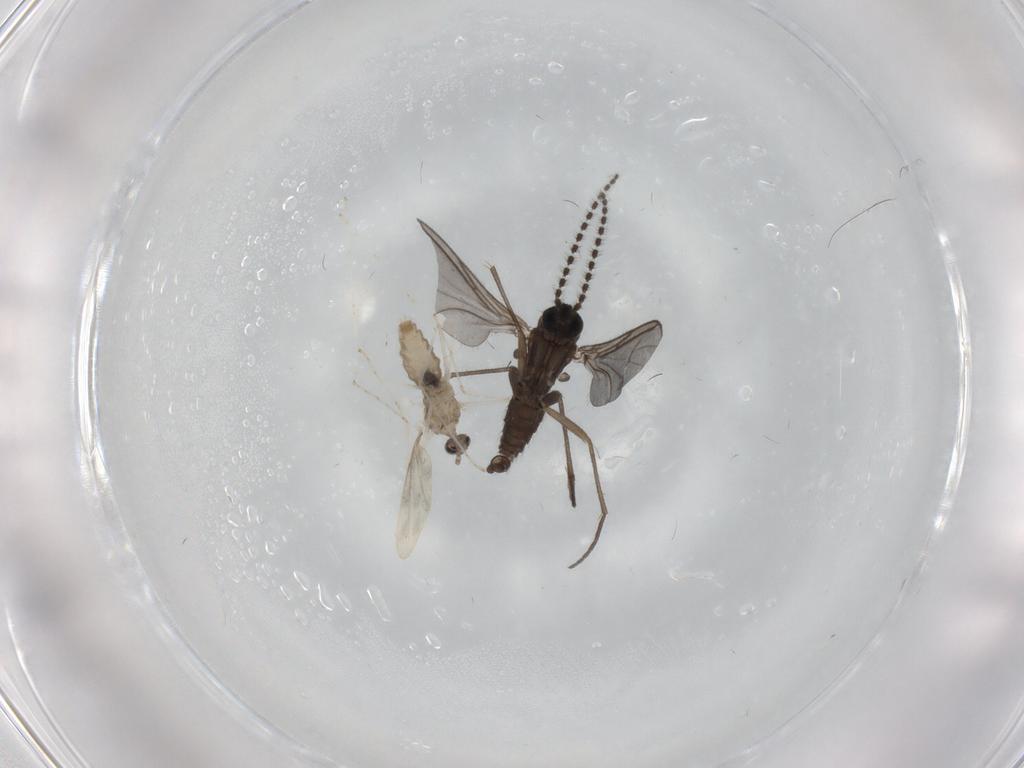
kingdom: Animalia
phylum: Arthropoda
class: Insecta
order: Diptera
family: Sciaridae
